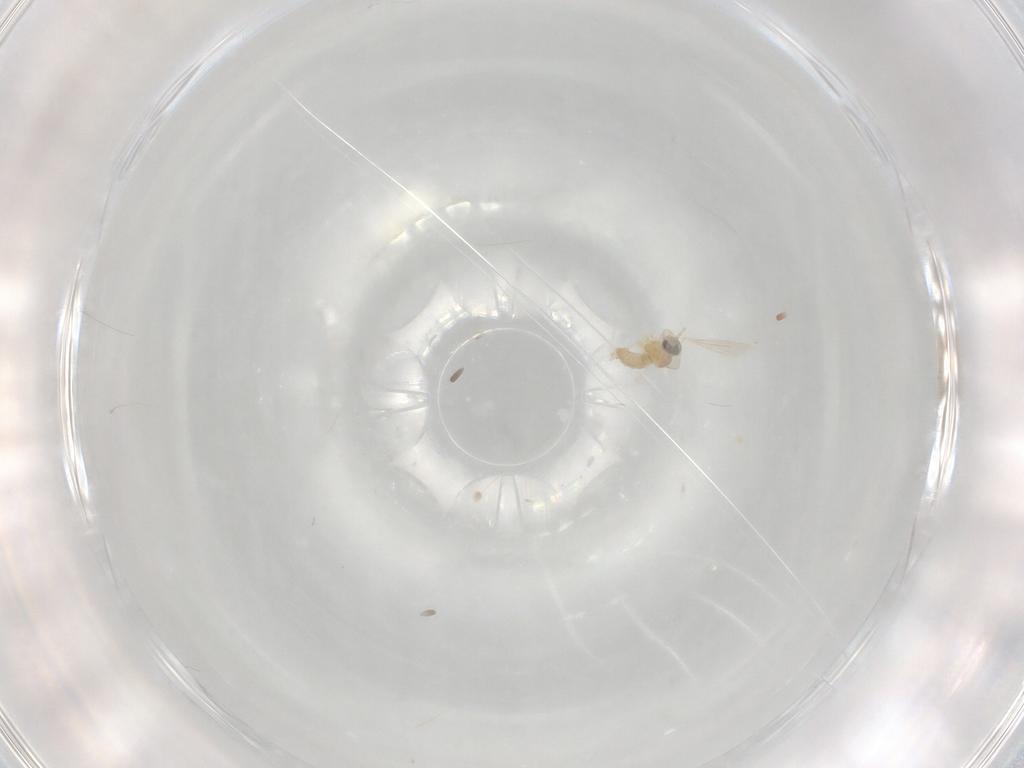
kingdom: Animalia
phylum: Arthropoda
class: Insecta
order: Diptera
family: Cecidomyiidae
